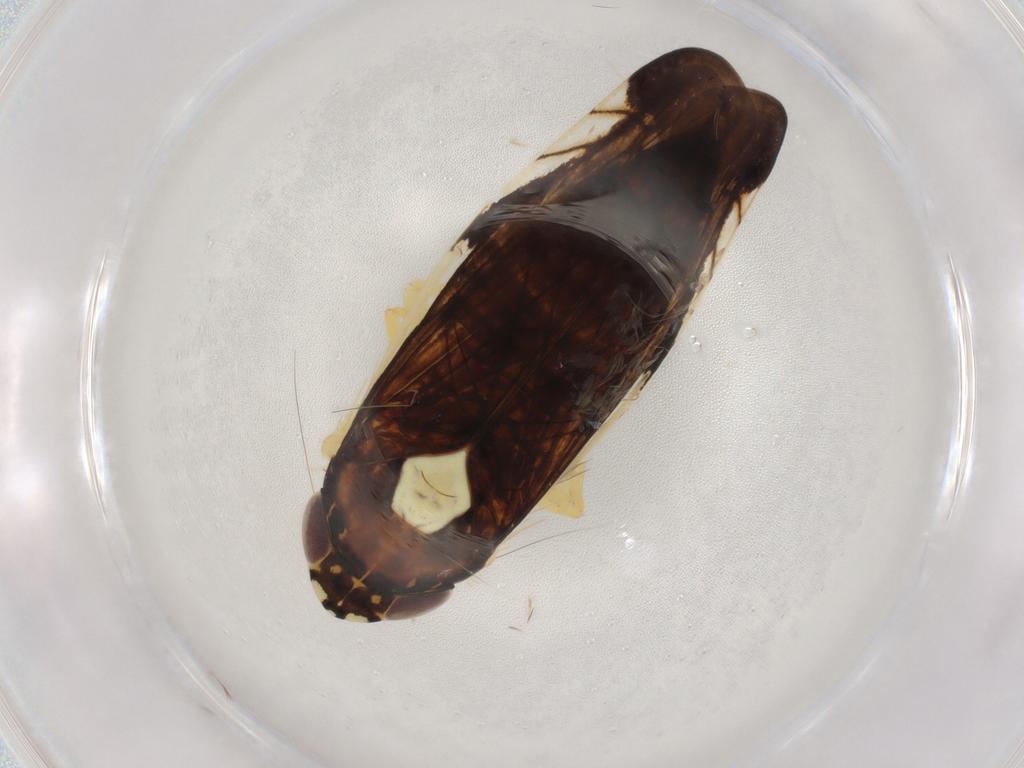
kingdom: Animalia
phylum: Arthropoda
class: Insecta
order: Hemiptera
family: Cicadellidae
